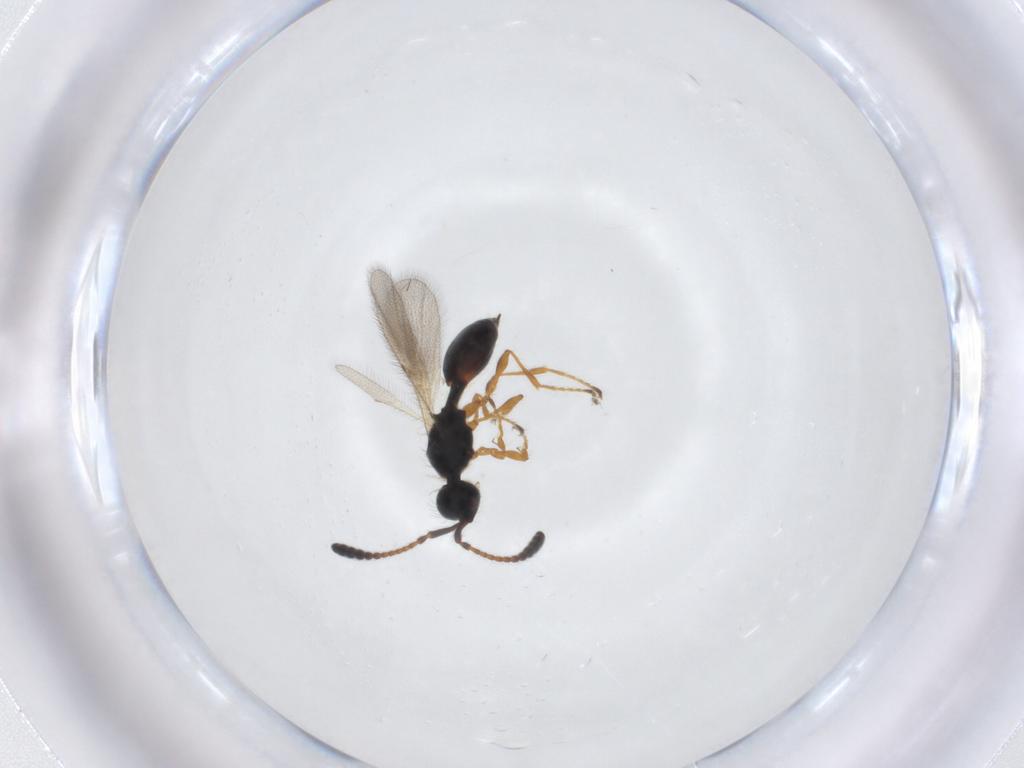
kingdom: Animalia
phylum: Arthropoda
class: Insecta
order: Hymenoptera
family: Diapriidae
